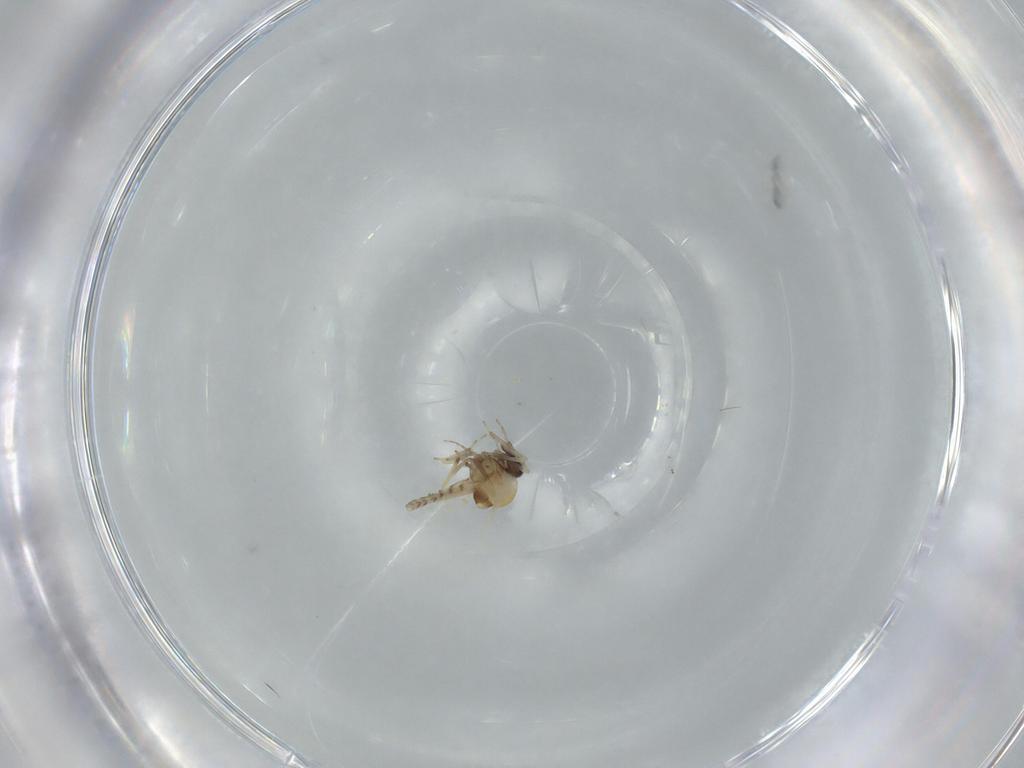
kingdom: Animalia
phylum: Arthropoda
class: Insecta
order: Diptera
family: Ceratopogonidae
